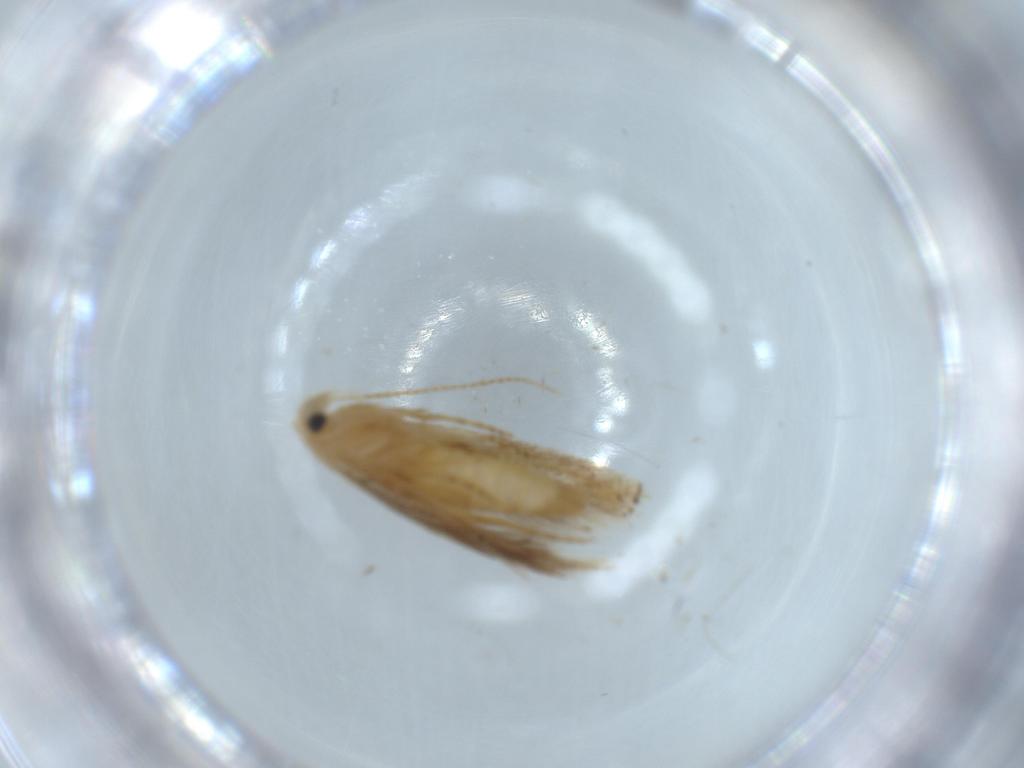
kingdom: Animalia
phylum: Arthropoda
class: Insecta
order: Lepidoptera
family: Bucculatricidae
